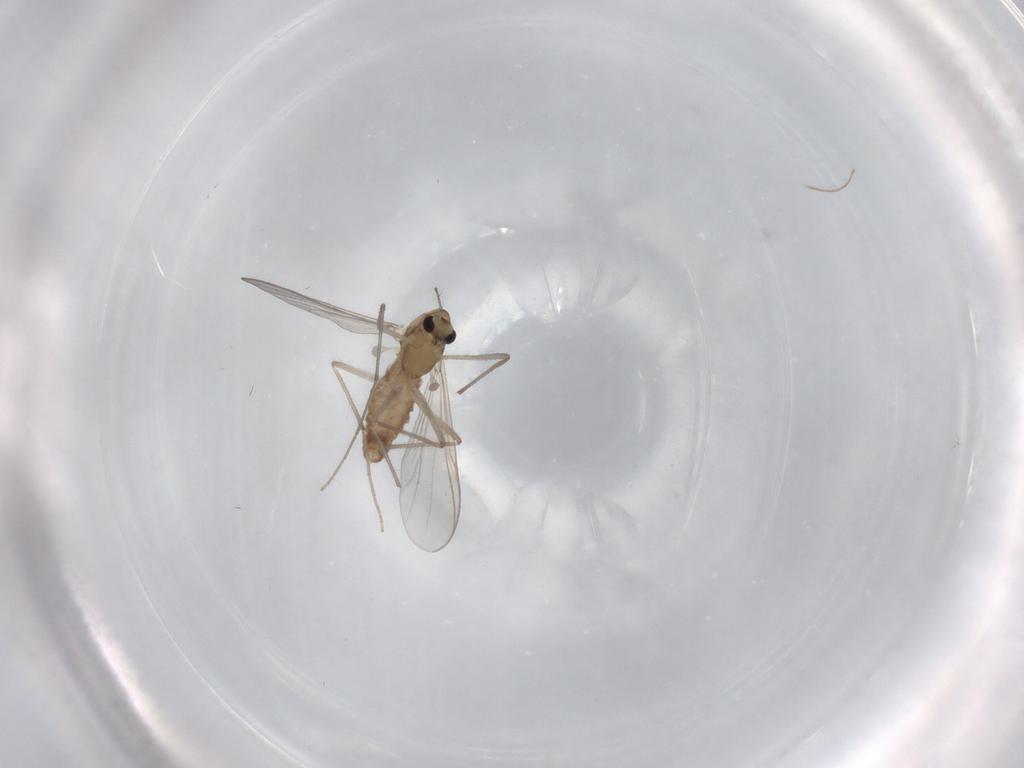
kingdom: Animalia
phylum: Arthropoda
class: Insecta
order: Diptera
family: Chironomidae
